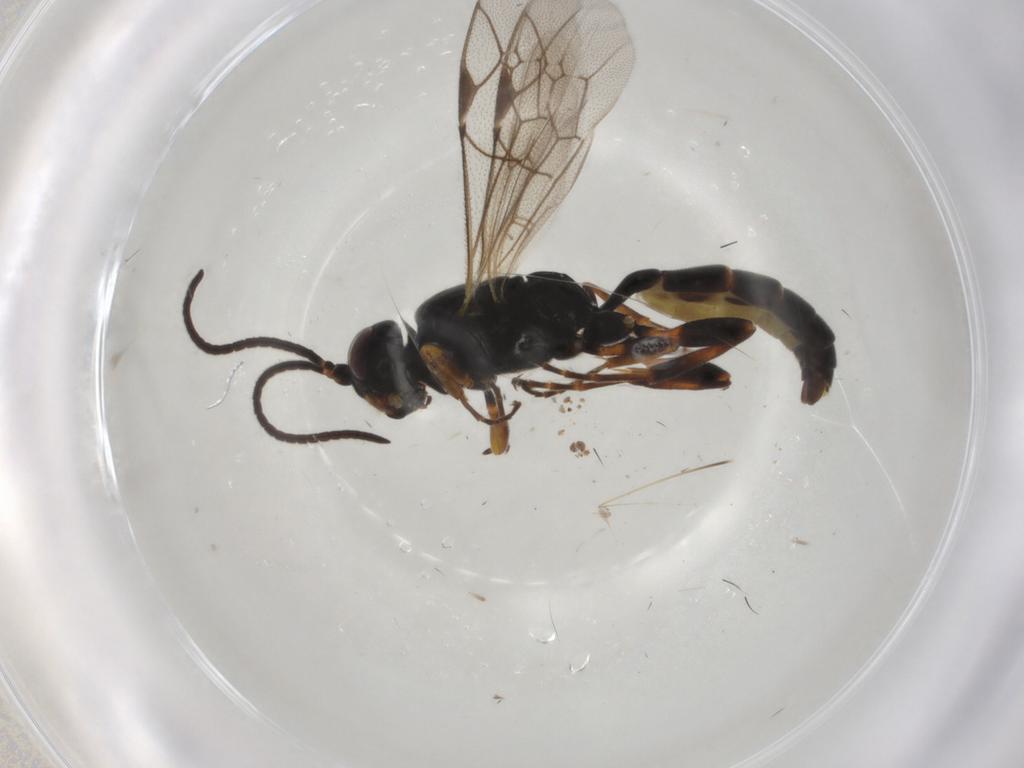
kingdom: Animalia
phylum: Arthropoda
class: Insecta
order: Hymenoptera
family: Ichneumonidae
